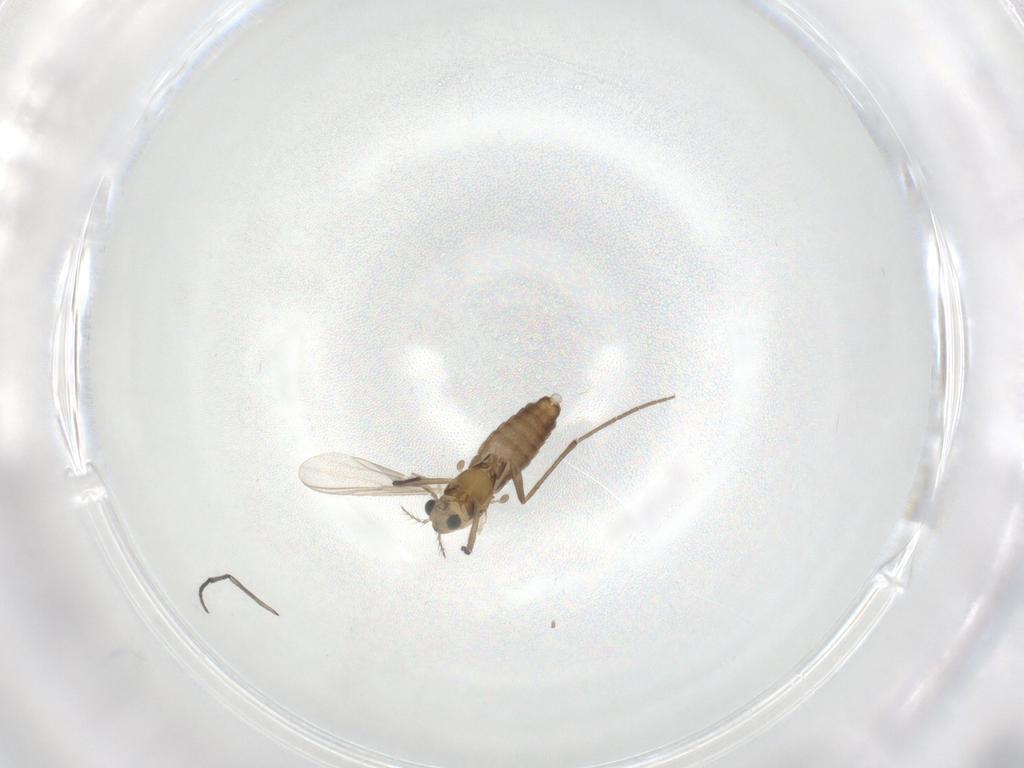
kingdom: Animalia
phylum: Arthropoda
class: Insecta
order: Diptera
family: Chironomidae
